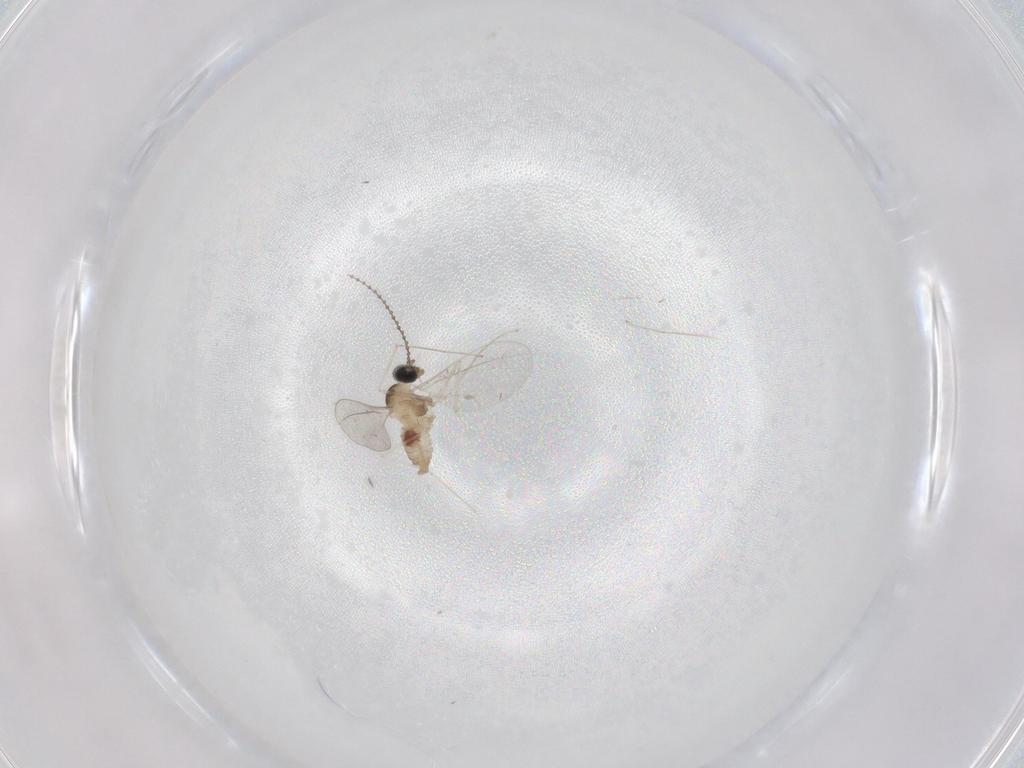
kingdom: Animalia
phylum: Arthropoda
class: Insecta
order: Diptera
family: Cecidomyiidae
